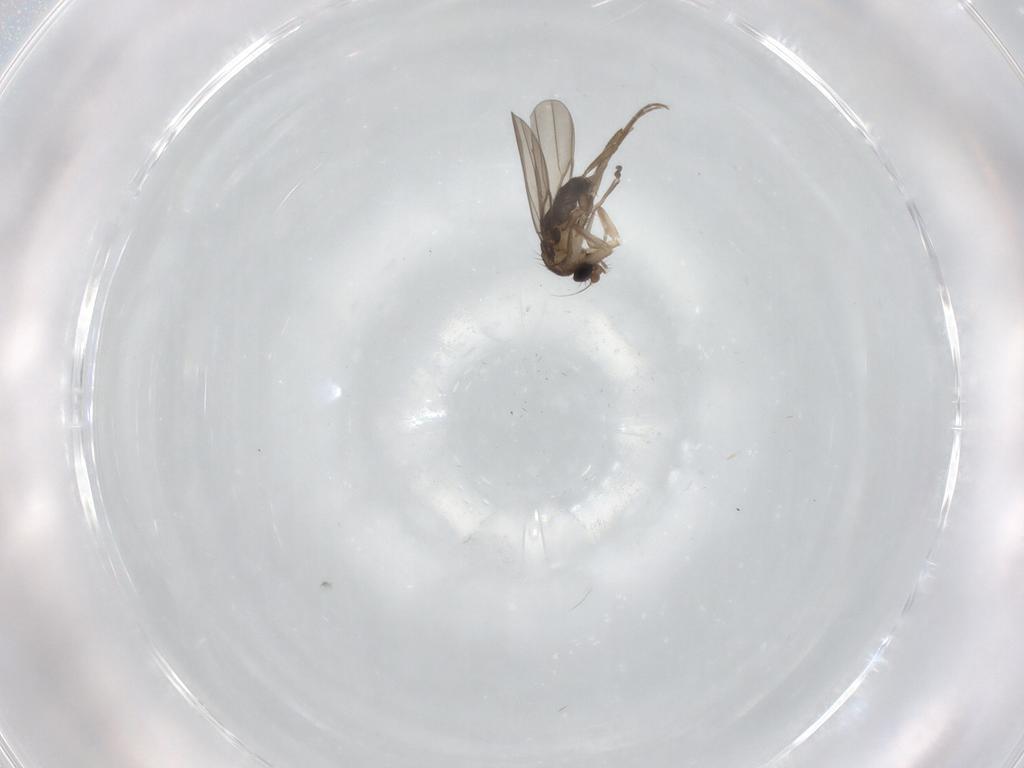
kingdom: Animalia
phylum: Arthropoda
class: Insecta
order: Diptera
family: Phoridae
